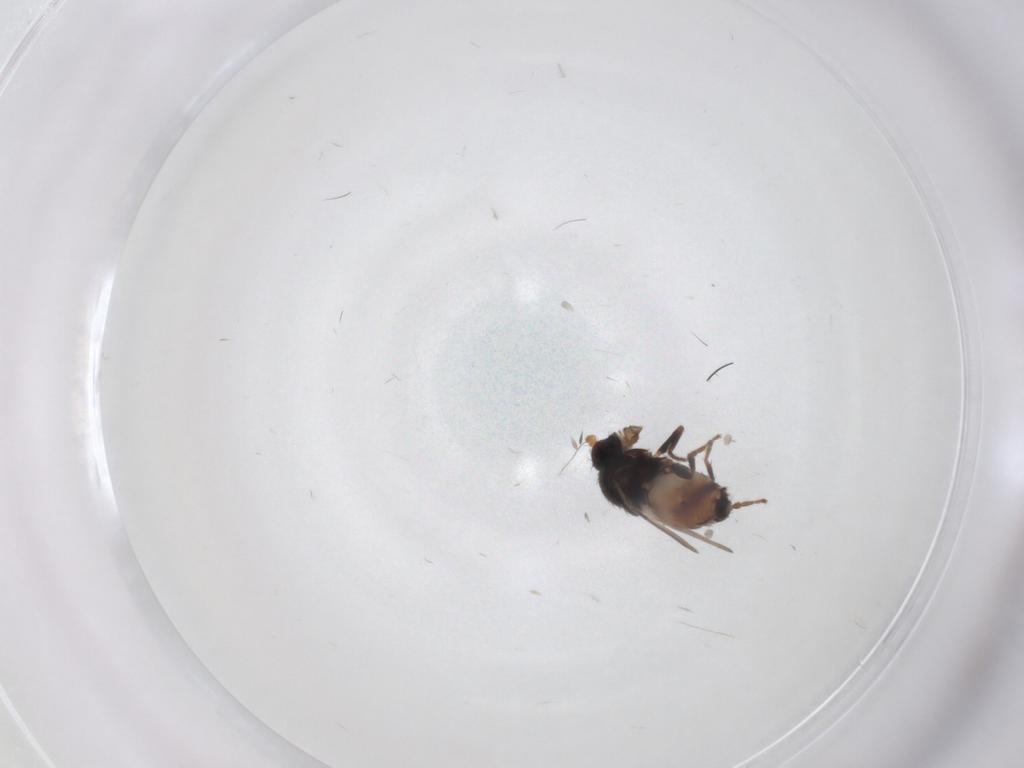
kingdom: Animalia
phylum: Arthropoda
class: Insecta
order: Diptera
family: Sphaeroceridae
